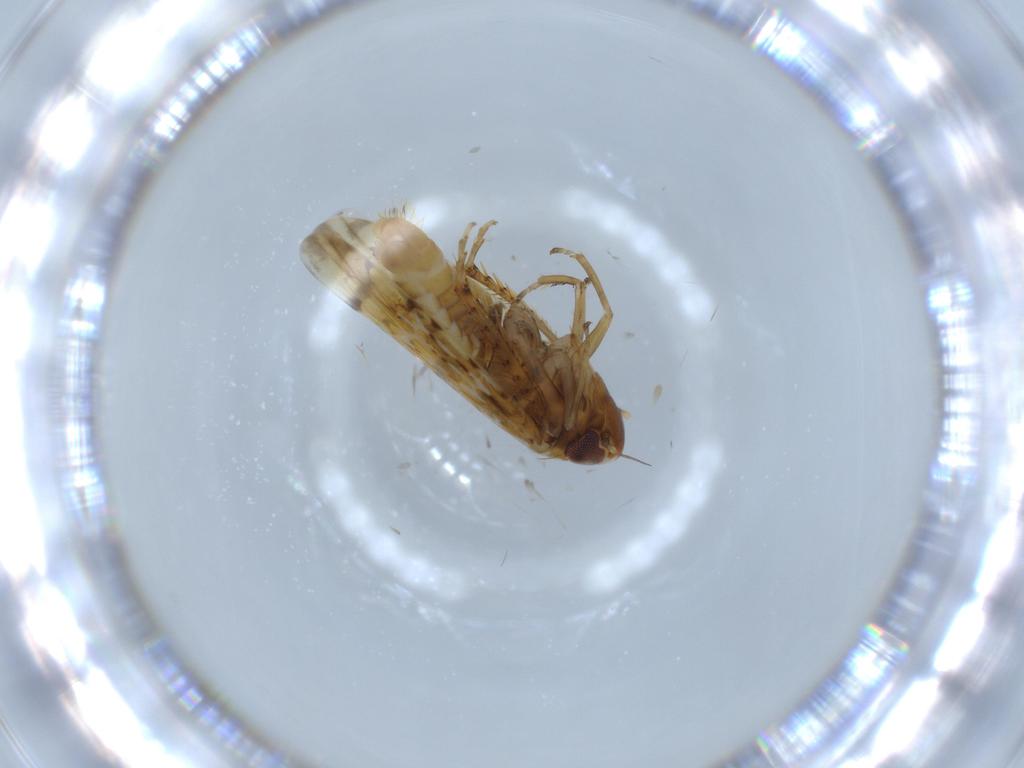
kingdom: Animalia
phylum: Arthropoda
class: Insecta
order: Hemiptera
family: Cicadellidae
